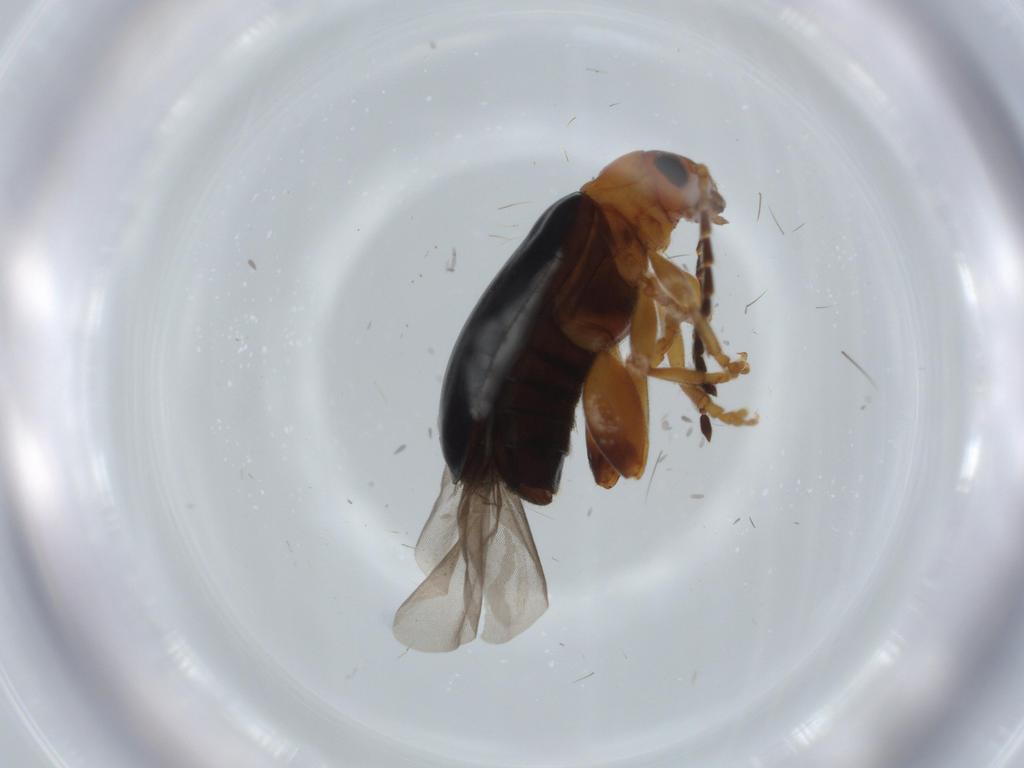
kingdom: Animalia
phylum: Arthropoda
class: Insecta
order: Coleoptera
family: Chrysomelidae
